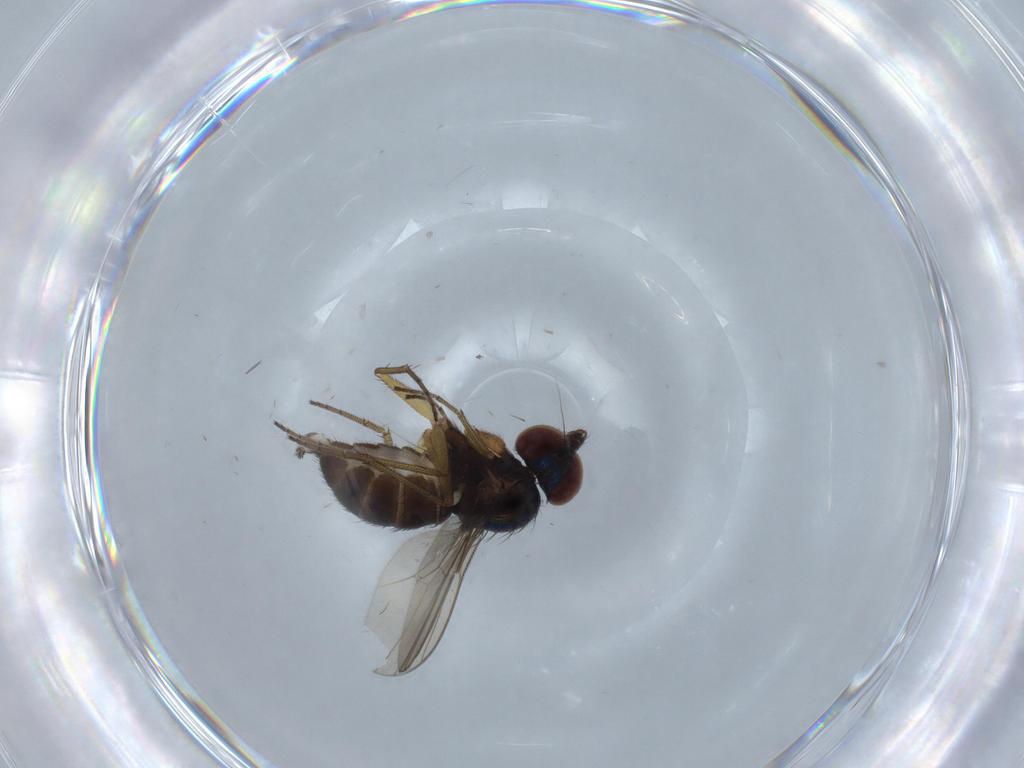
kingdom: Animalia
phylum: Arthropoda
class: Insecta
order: Diptera
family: Dolichopodidae
